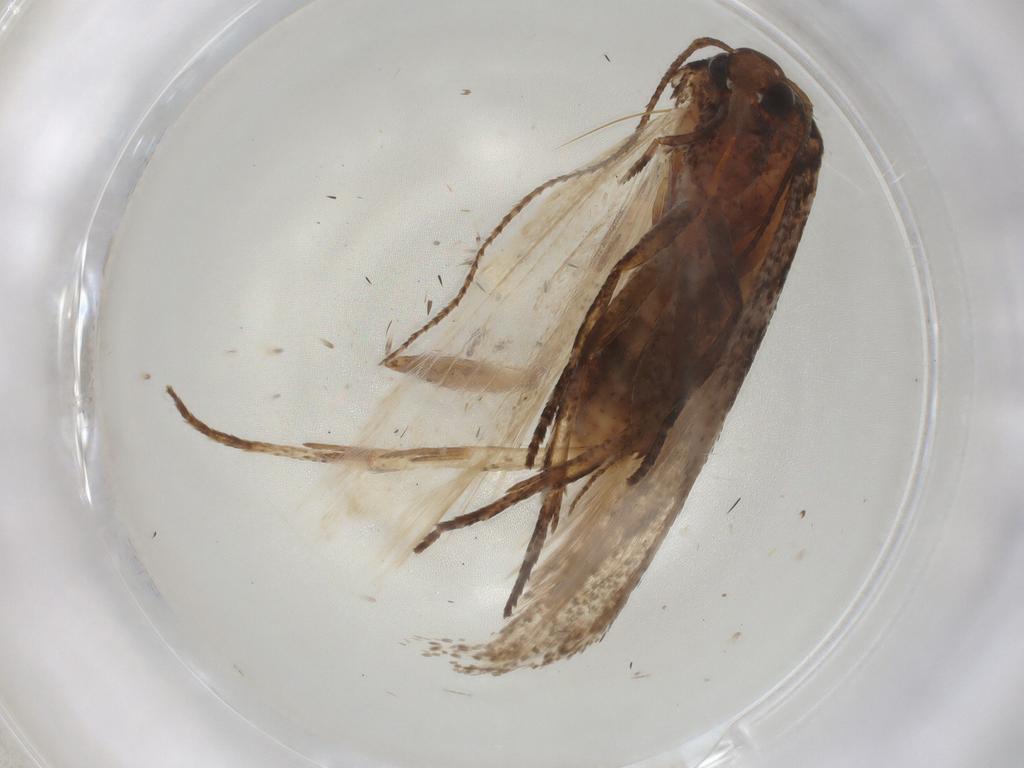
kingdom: Animalia
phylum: Arthropoda
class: Insecta
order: Lepidoptera
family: Cosmopterigidae
